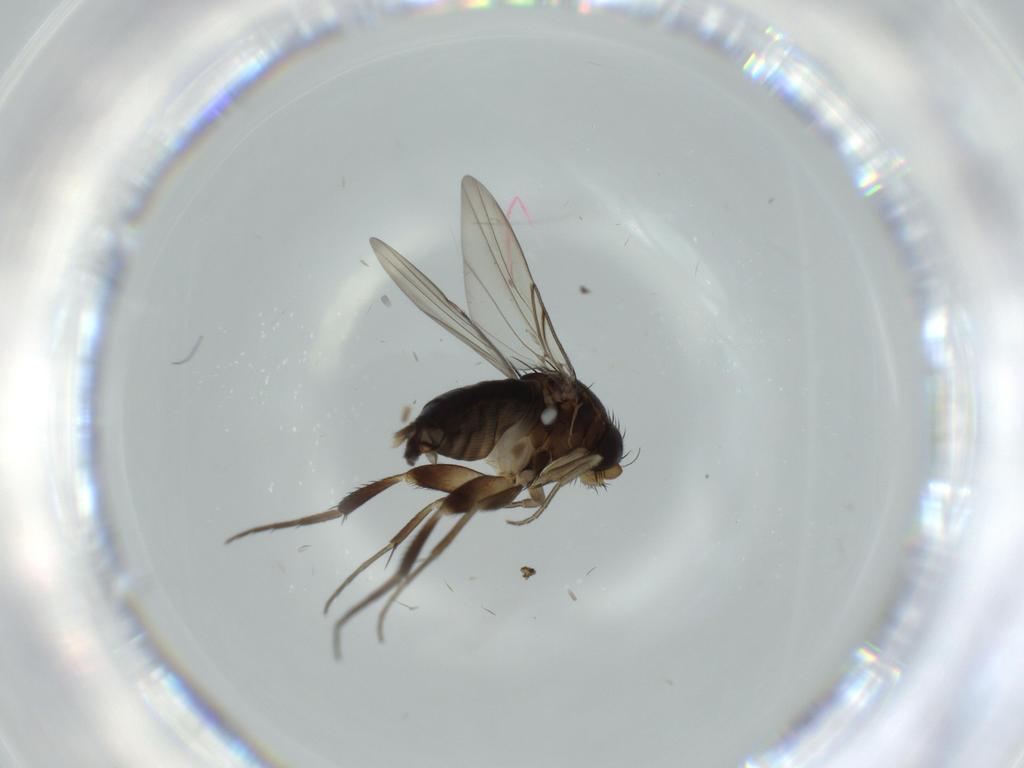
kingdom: Animalia
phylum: Arthropoda
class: Insecta
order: Diptera
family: Phoridae
